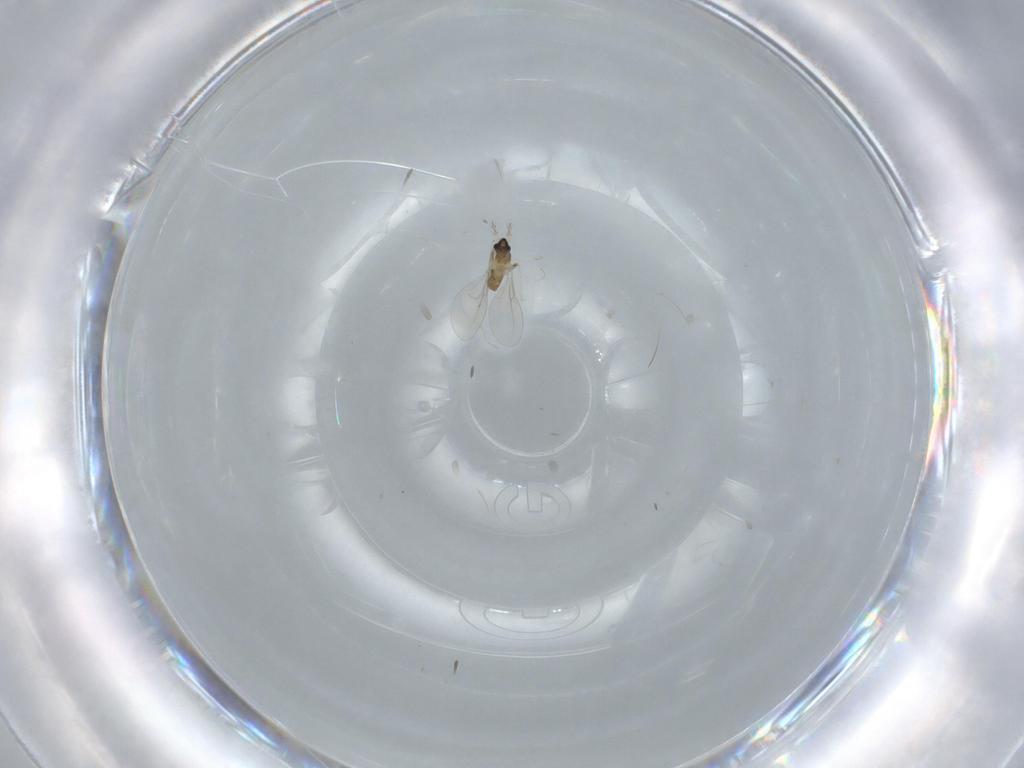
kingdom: Animalia
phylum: Arthropoda
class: Insecta
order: Diptera
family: Cecidomyiidae
